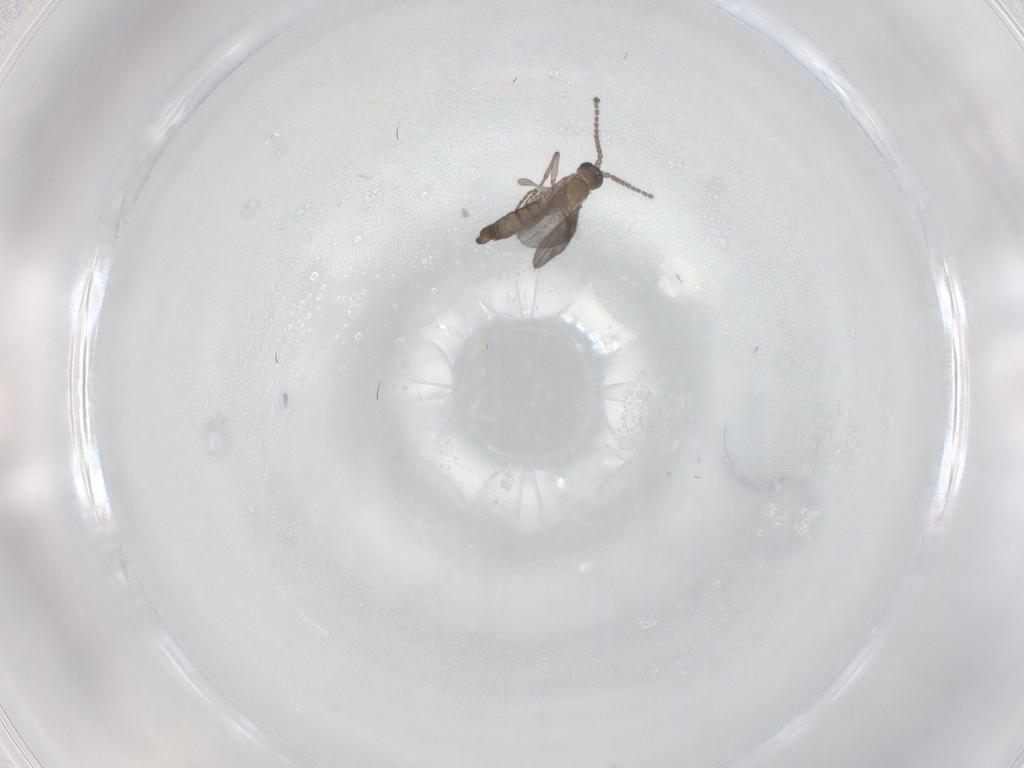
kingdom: Animalia
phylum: Arthropoda
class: Insecta
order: Diptera
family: Sciaridae
